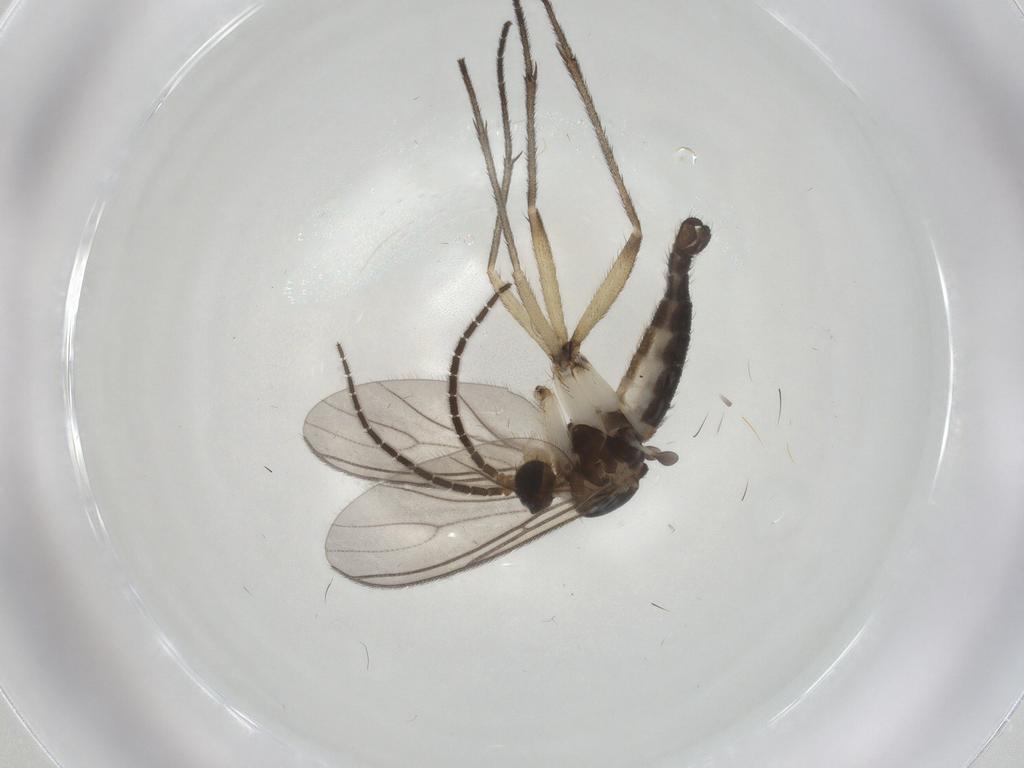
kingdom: Animalia
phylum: Arthropoda
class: Insecta
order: Diptera
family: Sciaridae
